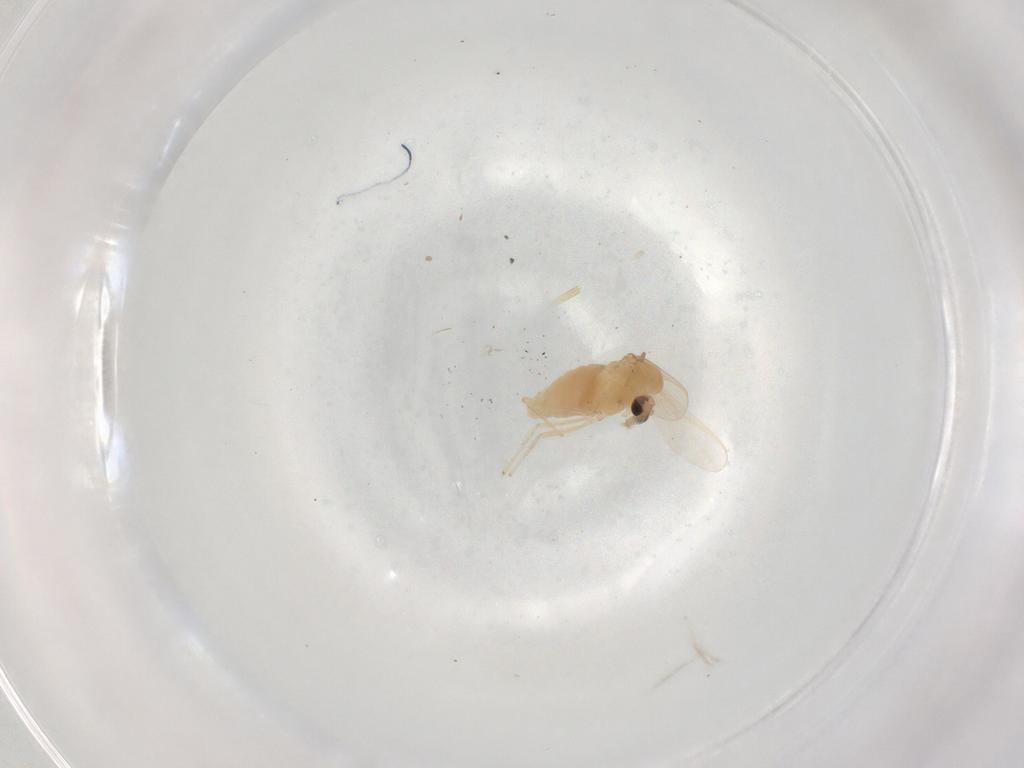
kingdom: Animalia
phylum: Arthropoda
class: Insecta
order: Diptera
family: Chironomidae
